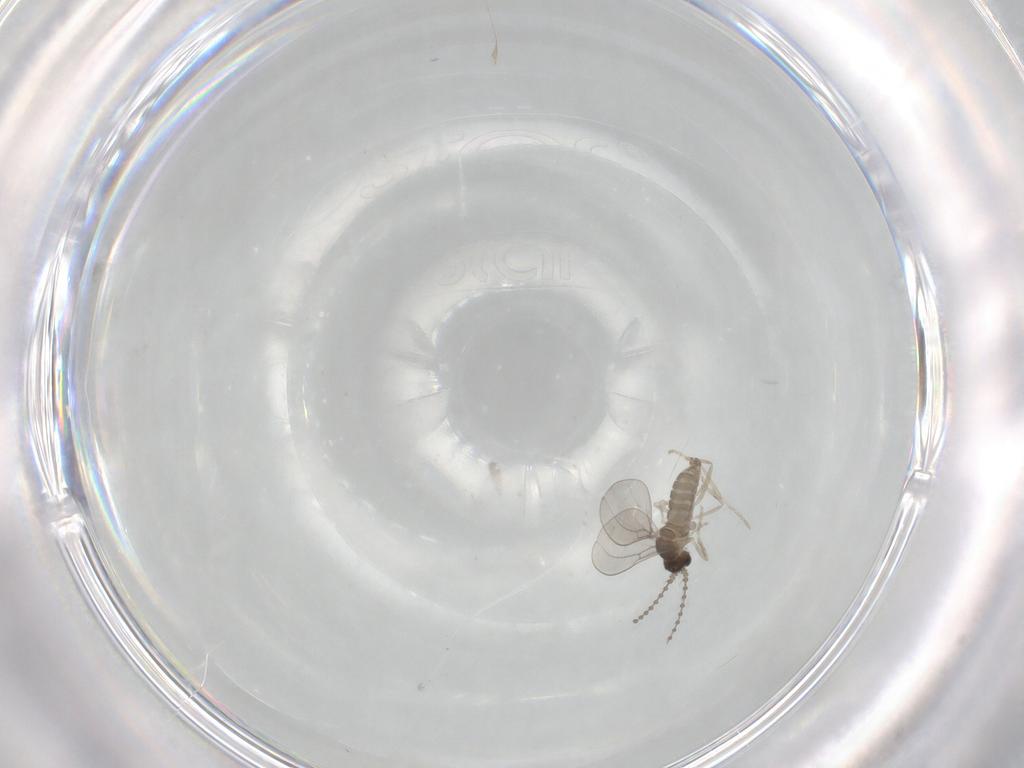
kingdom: Animalia
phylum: Arthropoda
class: Insecta
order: Diptera
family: Cecidomyiidae
